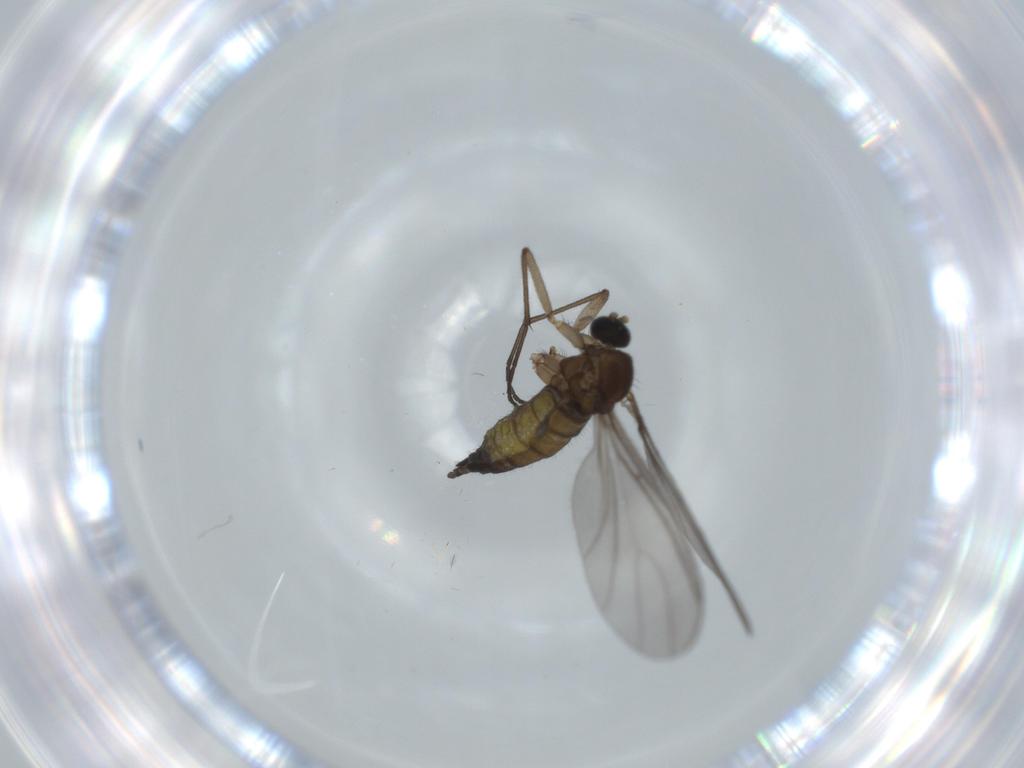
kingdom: Animalia
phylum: Arthropoda
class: Insecta
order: Diptera
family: Sciaridae
